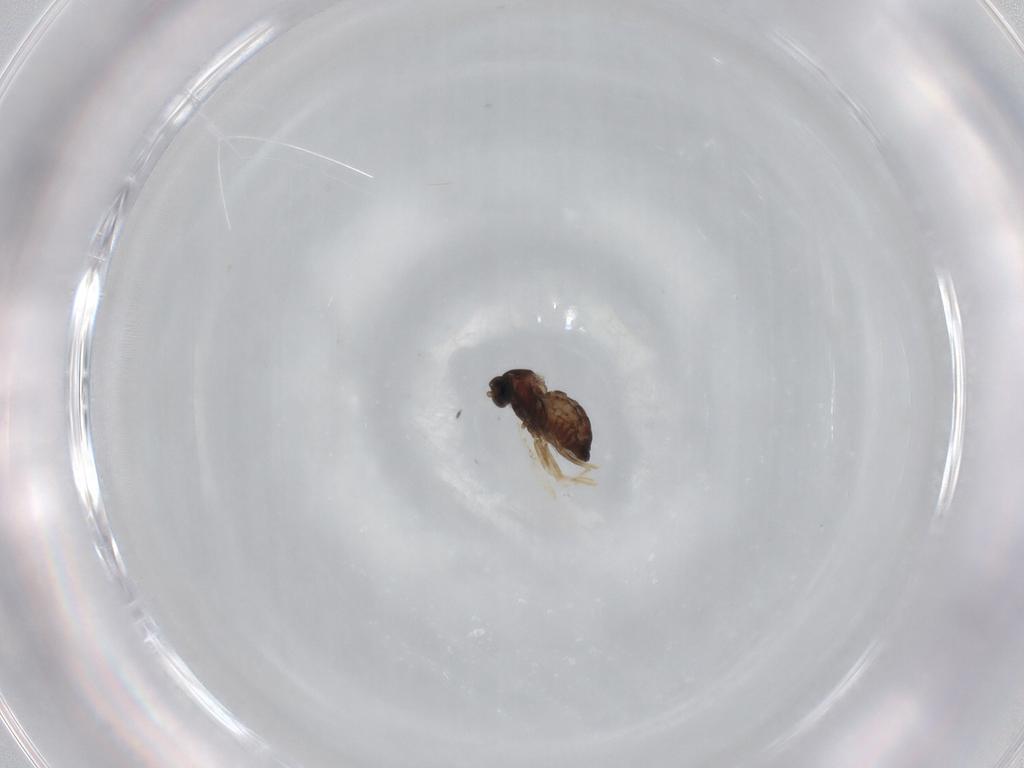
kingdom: Animalia
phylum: Arthropoda
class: Insecta
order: Diptera
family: Cecidomyiidae
